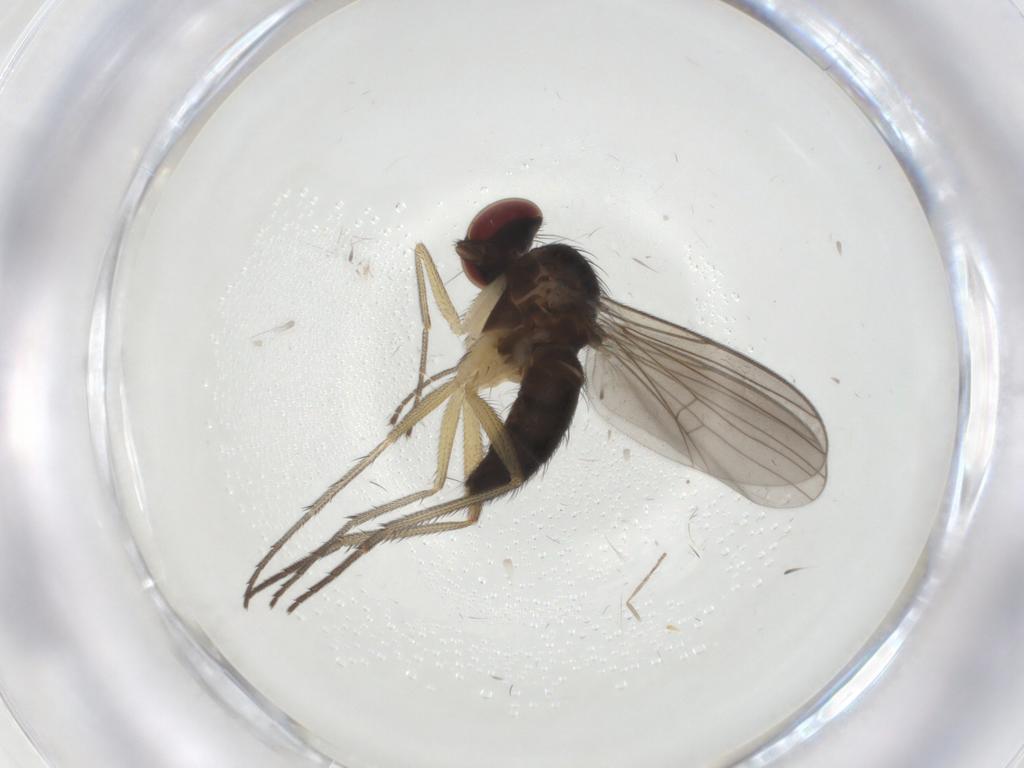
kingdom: Animalia
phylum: Arthropoda
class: Insecta
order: Diptera
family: Dolichopodidae
